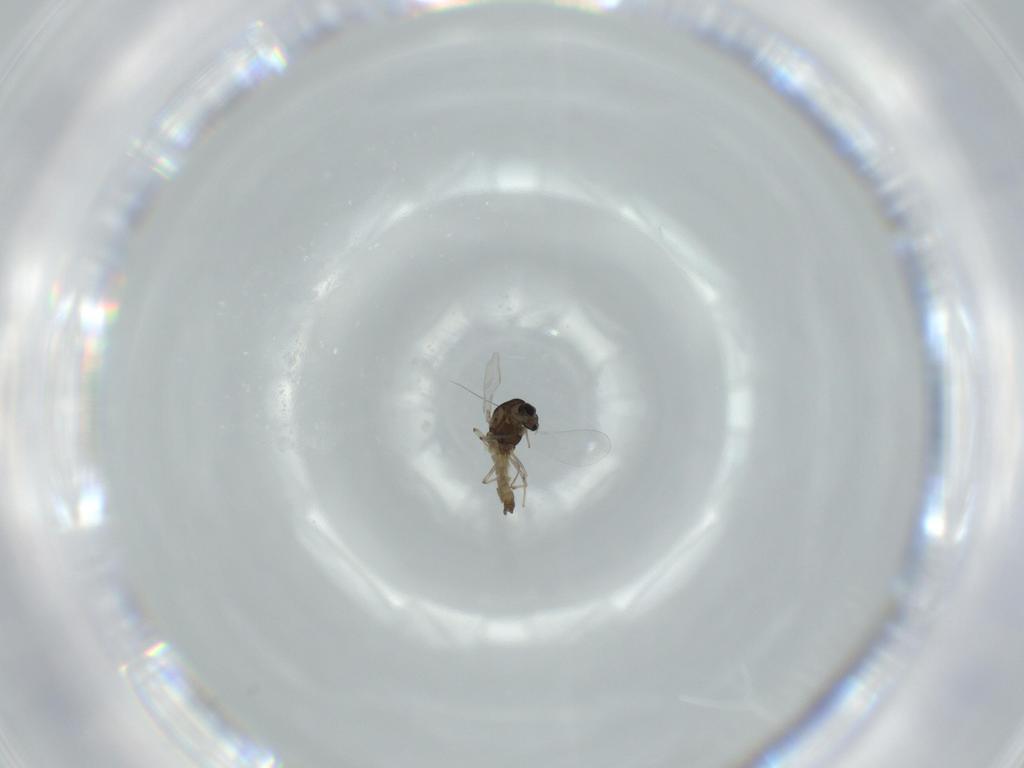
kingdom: Animalia
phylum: Arthropoda
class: Insecta
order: Diptera
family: Chironomidae
